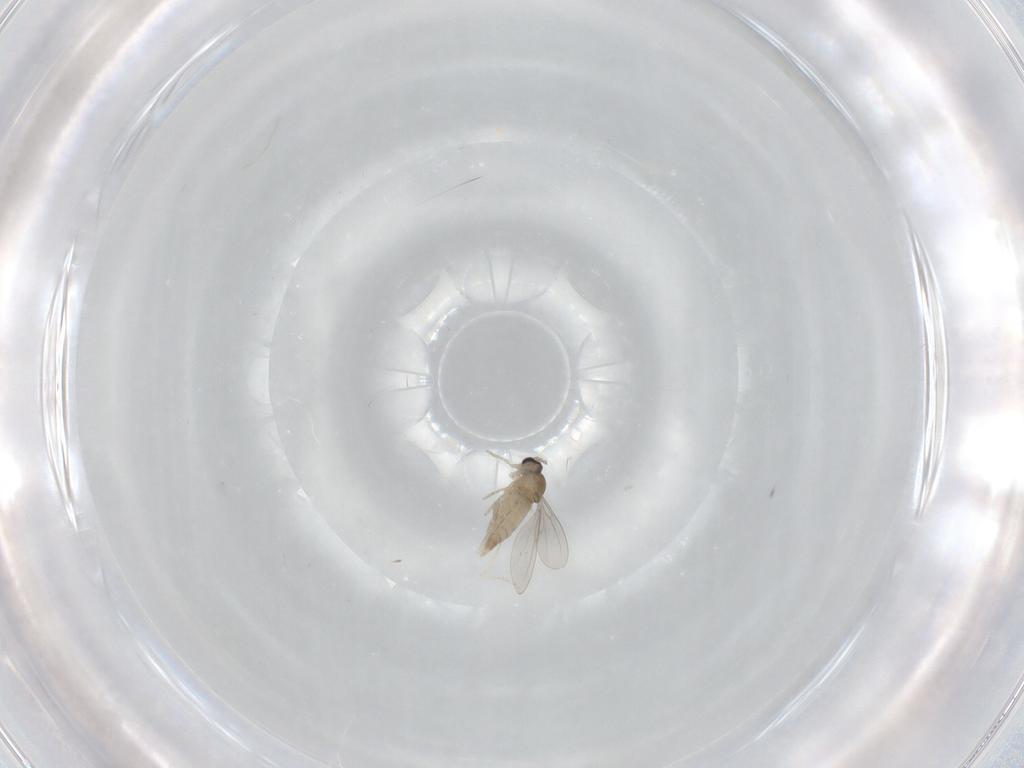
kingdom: Animalia
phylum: Arthropoda
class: Insecta
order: Diptera
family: Cecidomyiidae
